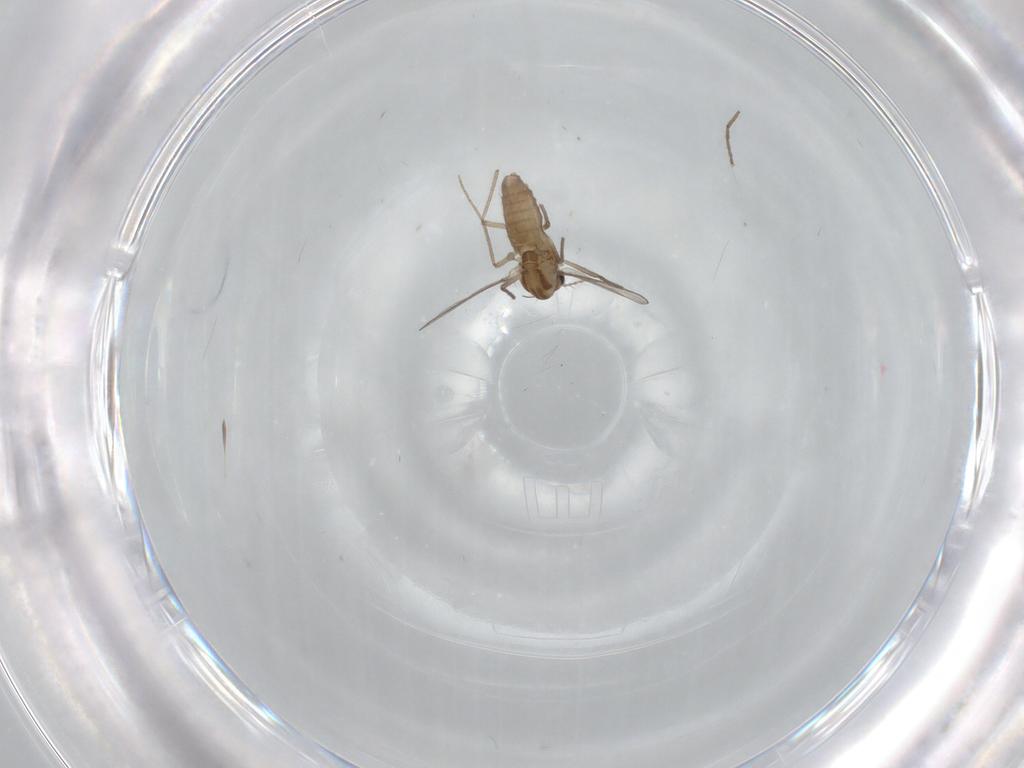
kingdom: Animalia
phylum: Arthropoda
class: Insecta
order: Diptera
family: Chironomidae
